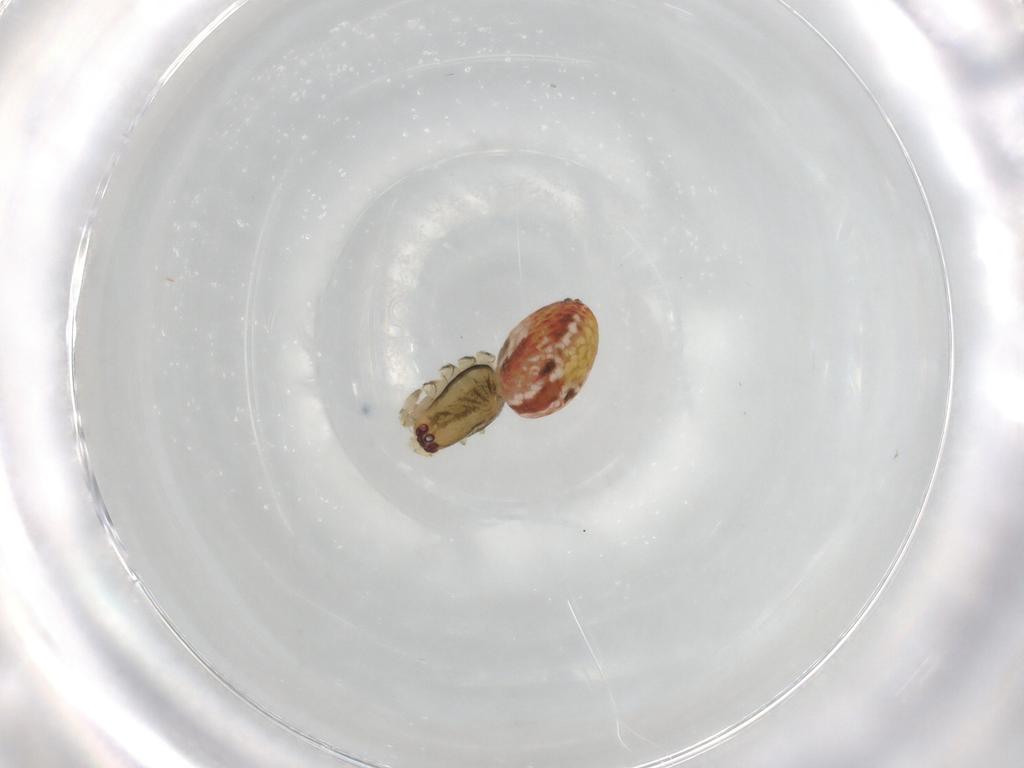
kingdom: Animalia
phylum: Arthropoda
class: Arachnida
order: Araneae
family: Theridiidae
